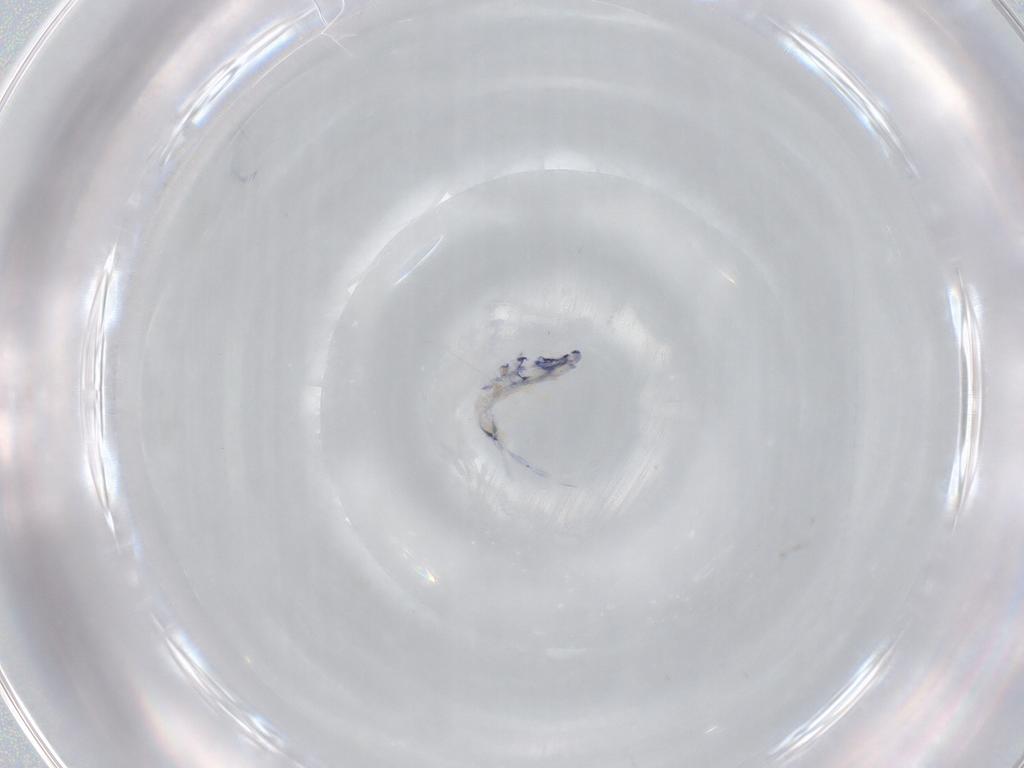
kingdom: Animalia
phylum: Arthropoda
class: Collembola
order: Entomobryomorpha
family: Entomobryidae
